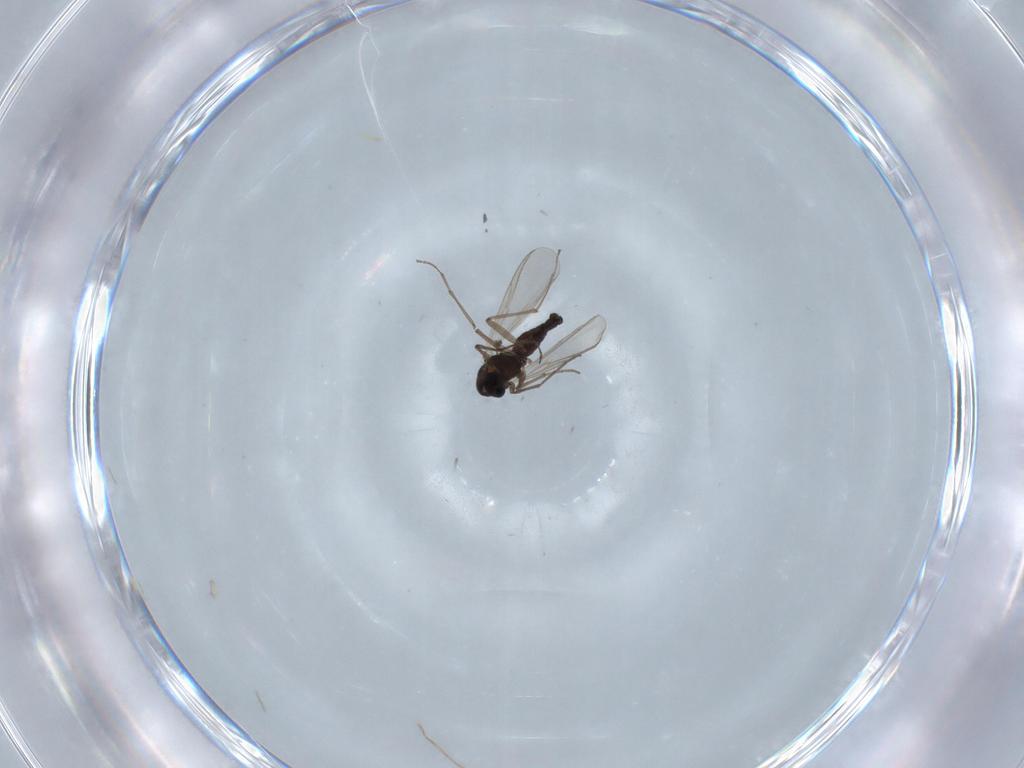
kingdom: Animalia
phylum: Arthropoda
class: Insecta
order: Diptera
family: Chironomidae
